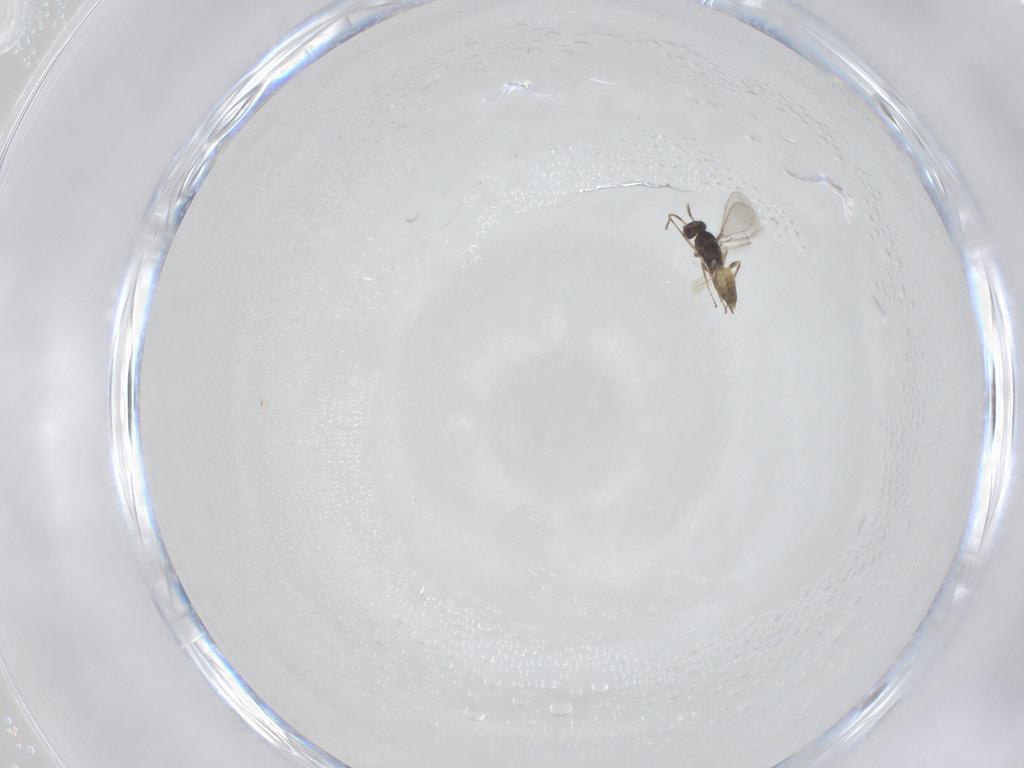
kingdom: Animalia
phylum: Arthropoda
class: Insecta
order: Hymenoptera
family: Mymaridae
